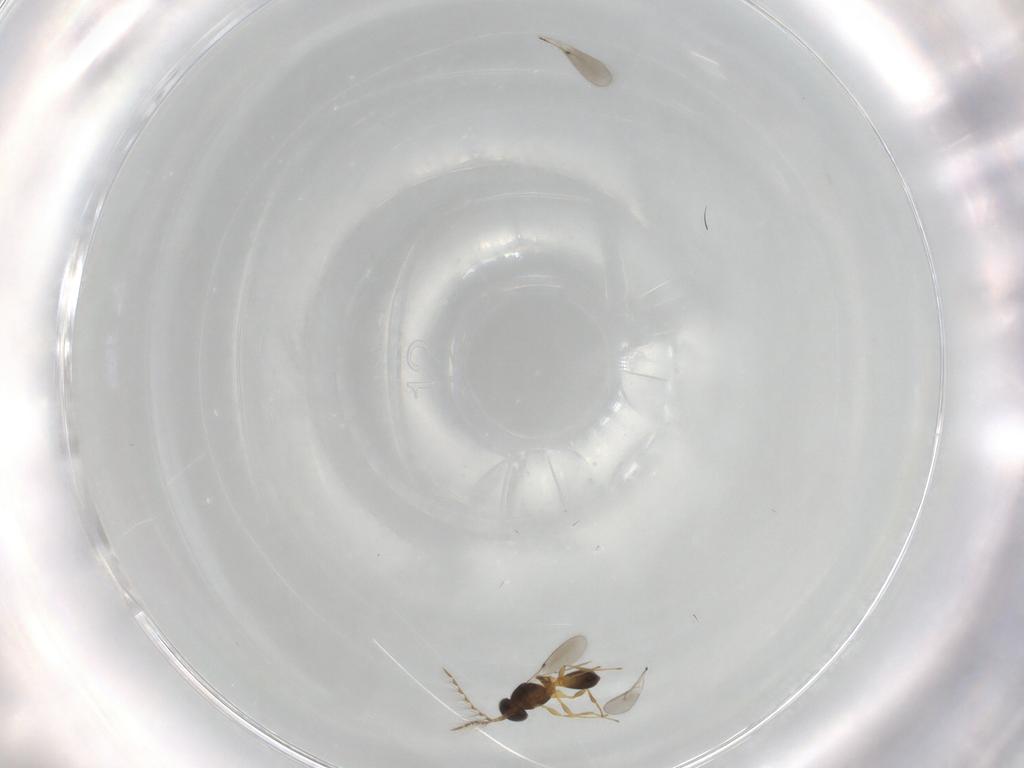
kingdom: Animalia
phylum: Arthropoda
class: Insecta
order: Hymenoptera
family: Platygastridae
